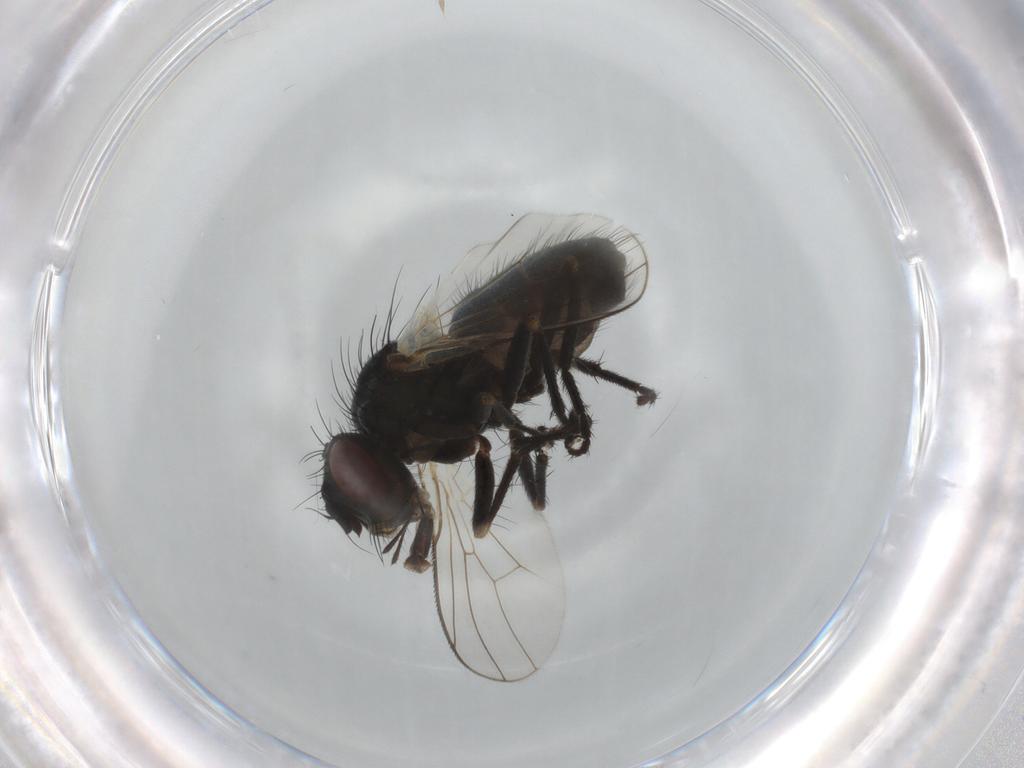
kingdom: Animalia
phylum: Arthropoda
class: Insecta
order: Diptera
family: Muscidae
